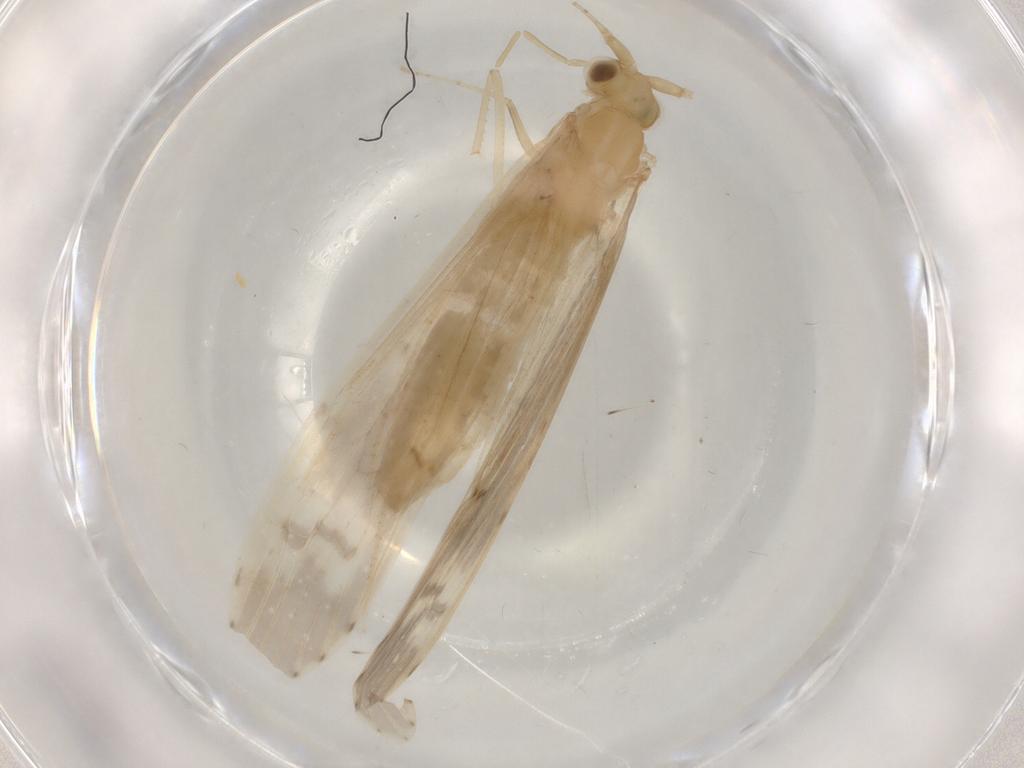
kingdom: Animalia
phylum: Arthropoda
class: Insecta
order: Trichoptera
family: Leptoceridae
